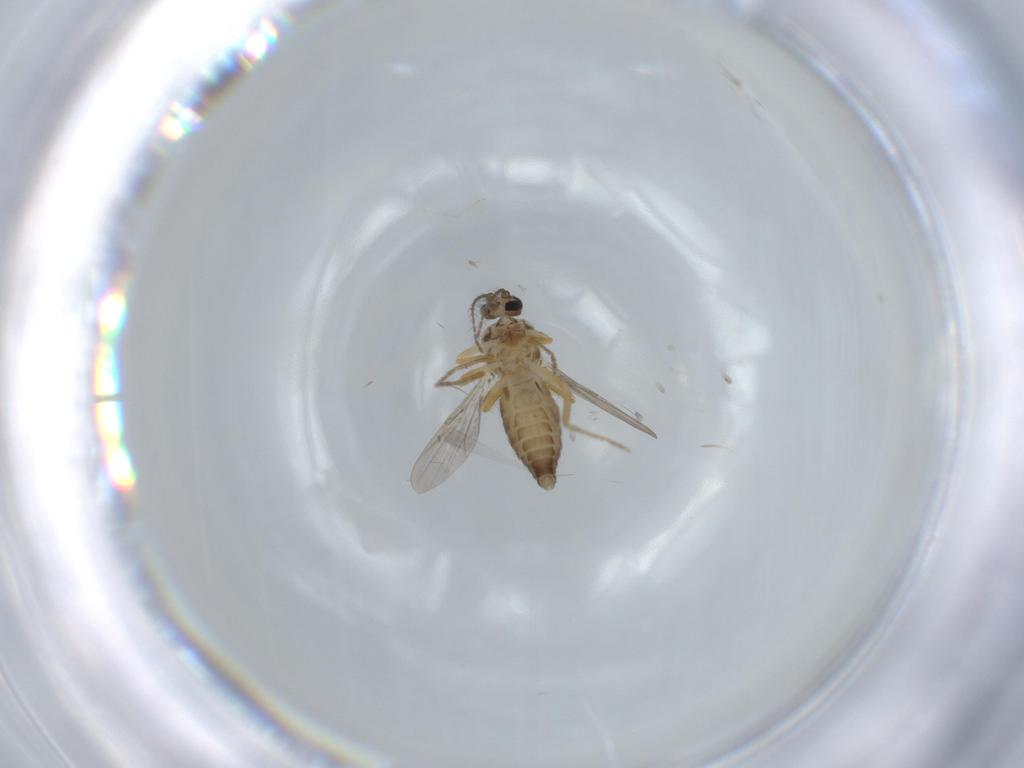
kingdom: Animalia
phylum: Arthropoda
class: Insecta
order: Diptera
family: Ceratopogonidae
